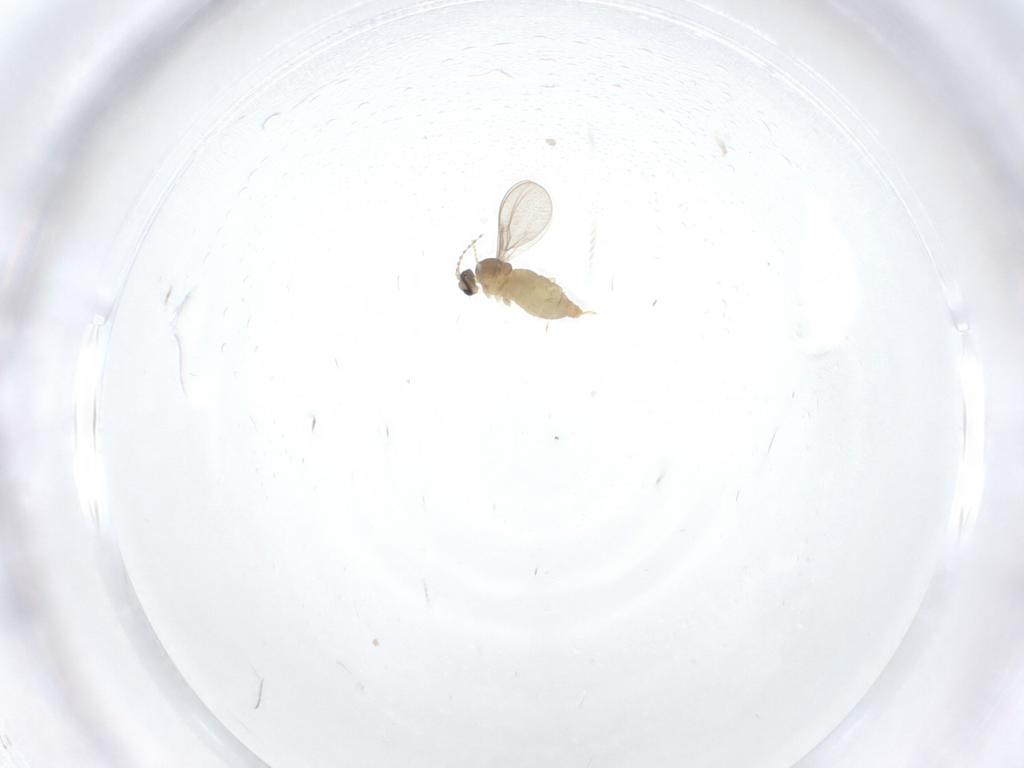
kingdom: Animalia
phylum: Arthropoda
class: Insecta
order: Diptera
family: Cecidomyiidae
